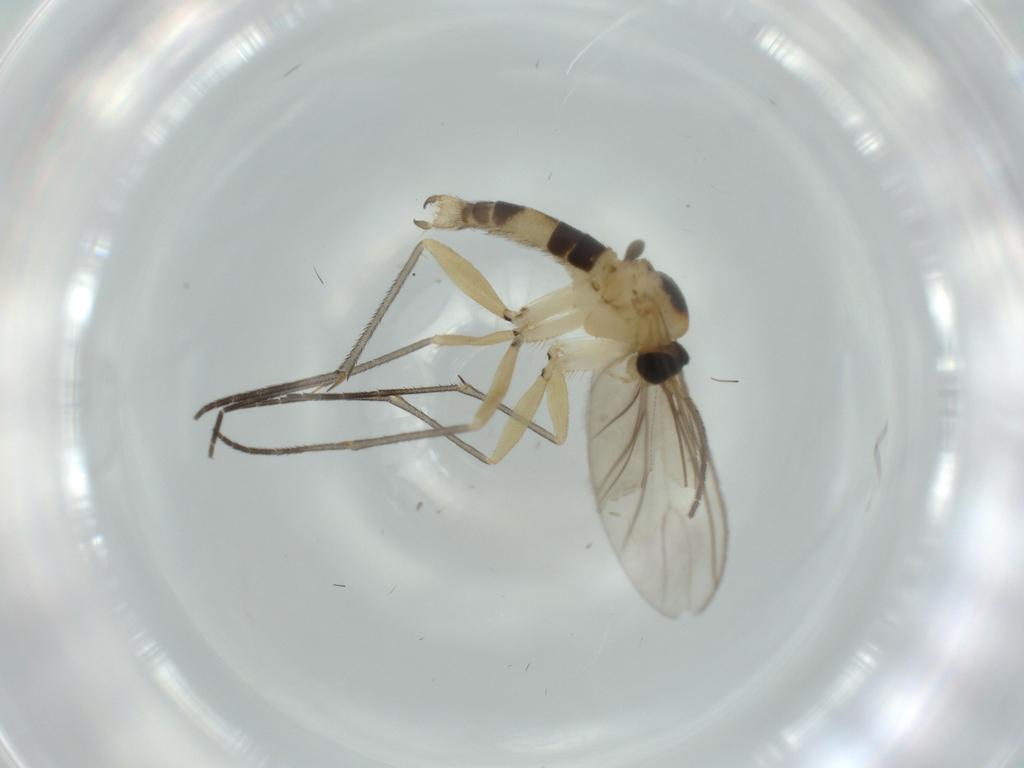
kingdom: Animalia
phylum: Arthropoda
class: Insecta
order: Diptera
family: Sciaridae
